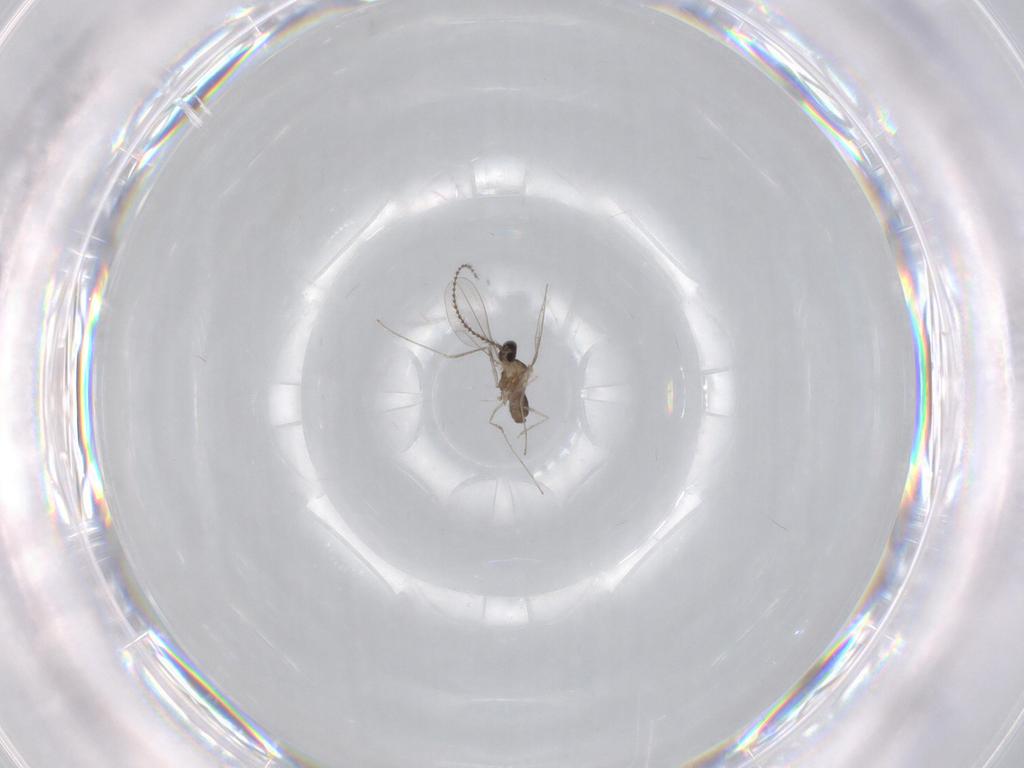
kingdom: Animalia
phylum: Arthropoda
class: Insecta
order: Diptera
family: Cecidomyiidae
